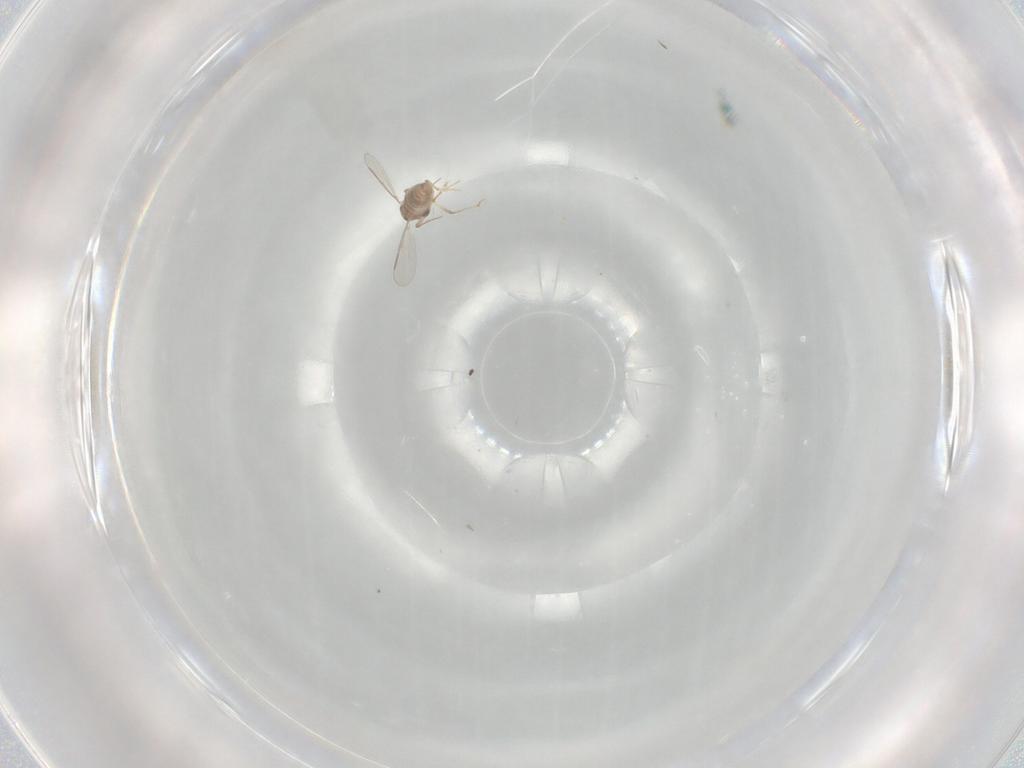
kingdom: Animalia
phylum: Arthropoda
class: Insecta
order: Diptera
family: Chironomidae
